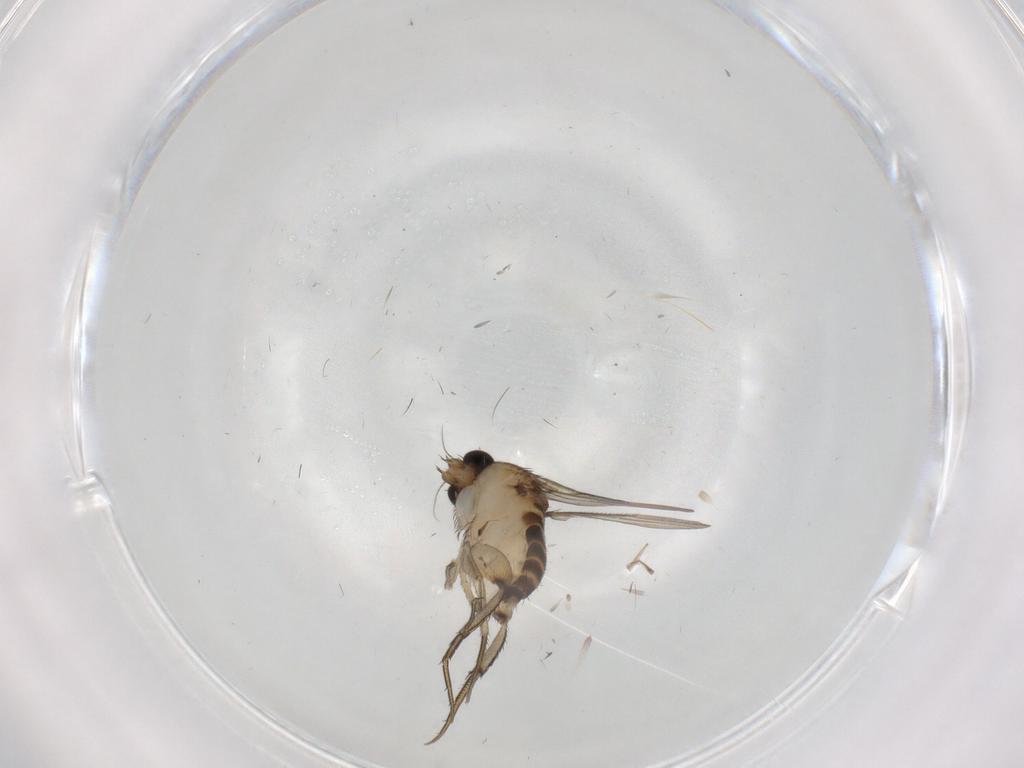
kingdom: Animalia
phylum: Arthropoda
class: Insecta
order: Diptera
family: Phoridae
